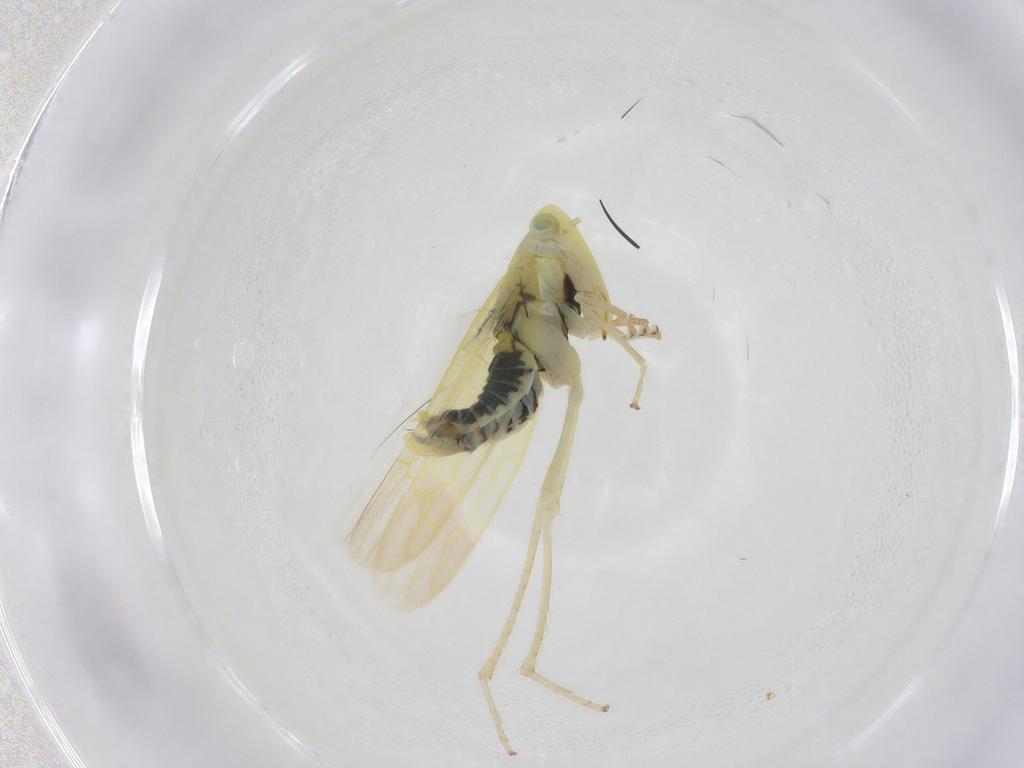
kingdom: Animalia
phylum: Arthropoda
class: Insecta
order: Hemiptera
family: Cicadellidae
